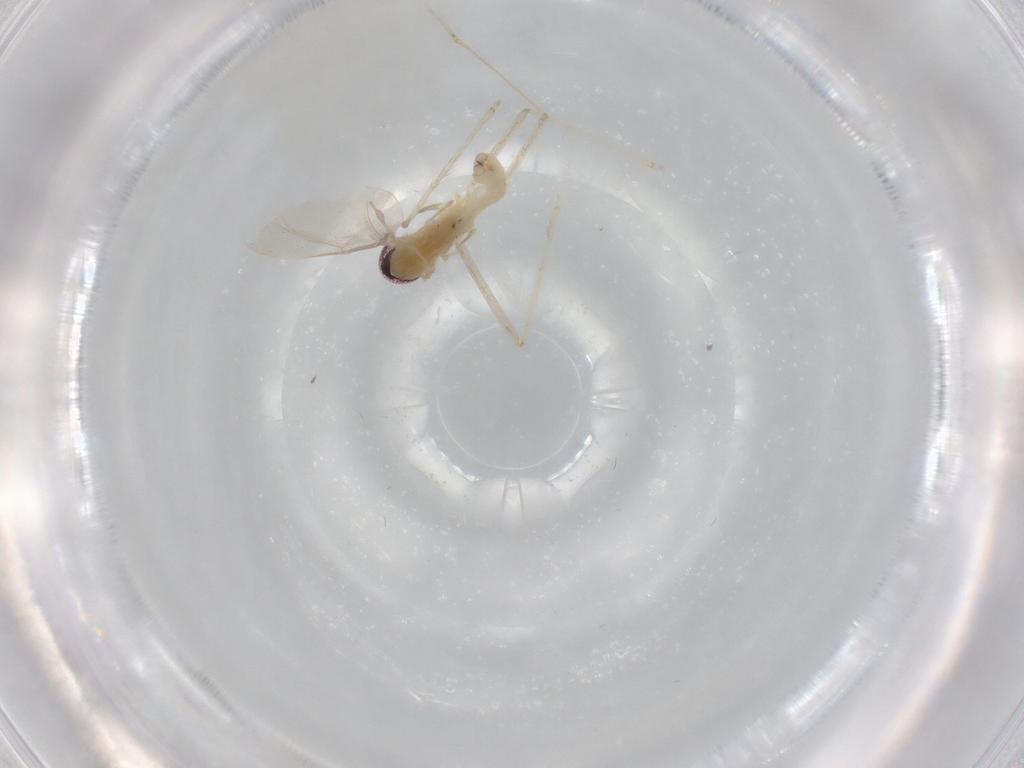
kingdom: Animalia
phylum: Arthropoda
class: Insecta
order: Diptera
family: Cecidomyiidae
